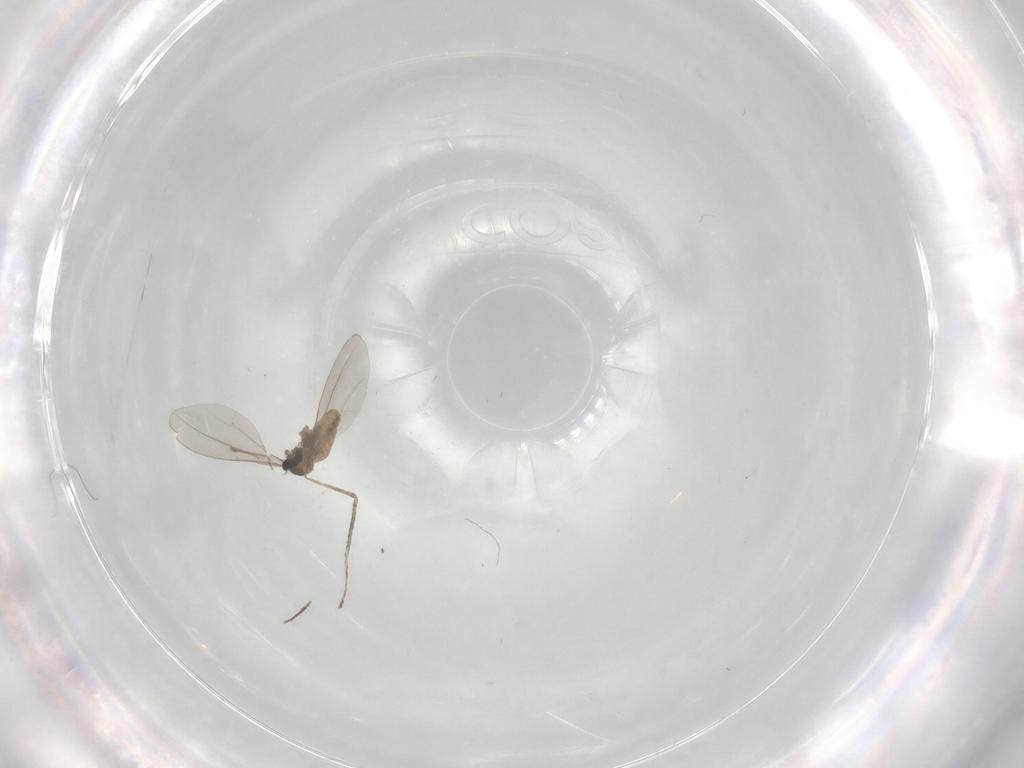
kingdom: Animalia
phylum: Arthropoda
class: Insecta
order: Diptera
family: Cecidomyiidae
